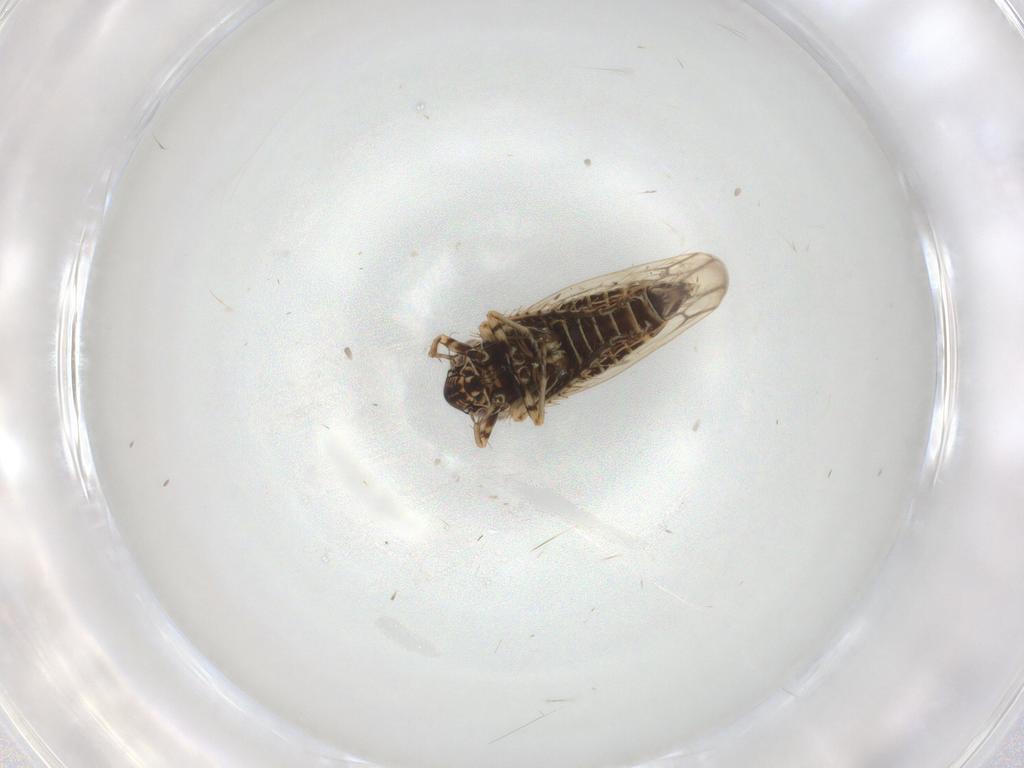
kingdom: Animalia
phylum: Arthropoda
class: Insecta
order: Hemiptera
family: Cicadellidae
